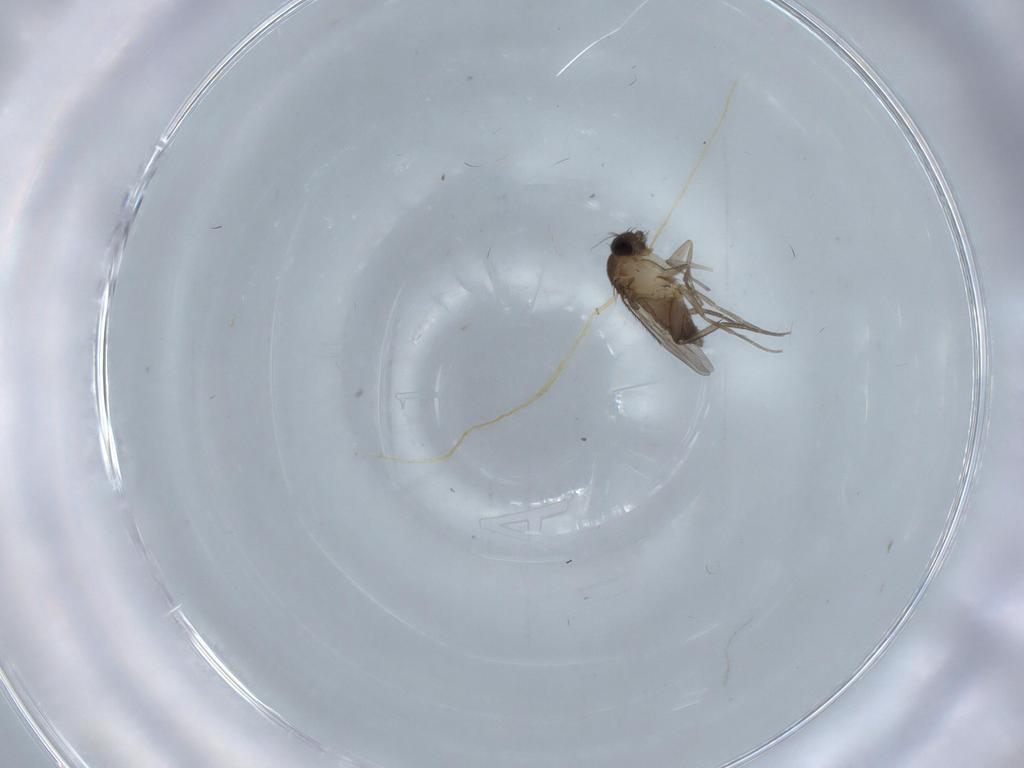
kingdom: Animalia
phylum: Arthropoda
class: Insecta
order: Diptera
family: Phoridae
